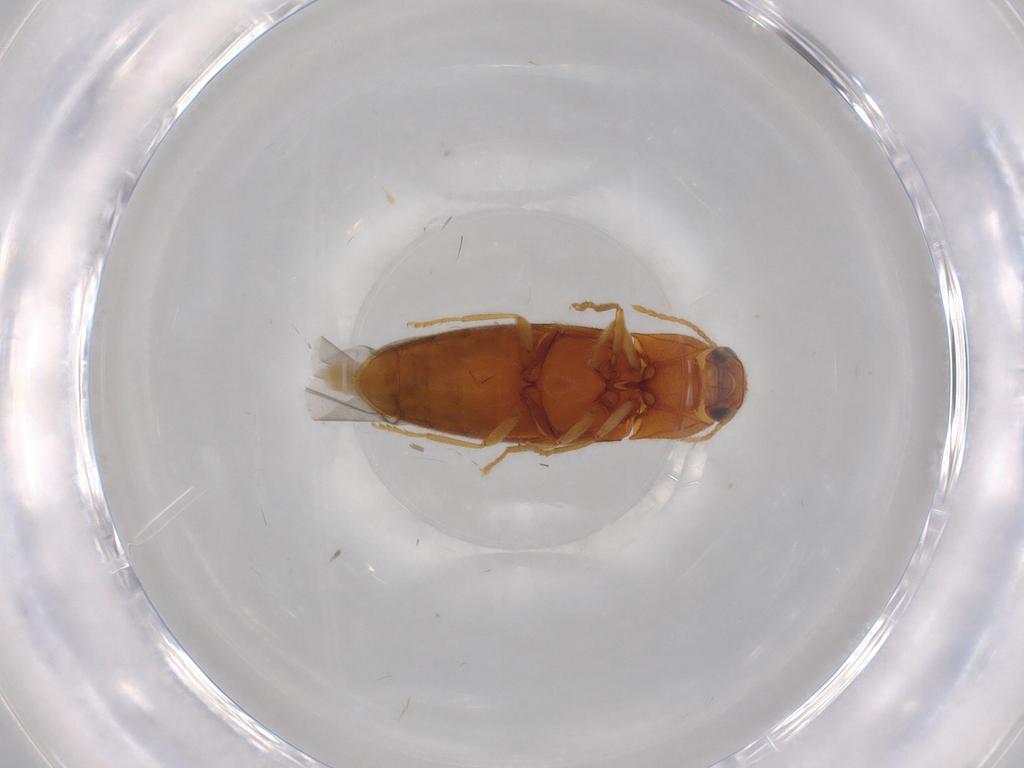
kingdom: Animalia
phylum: Arthropoda
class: Insecta
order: Coleoptera
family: Elateridae
